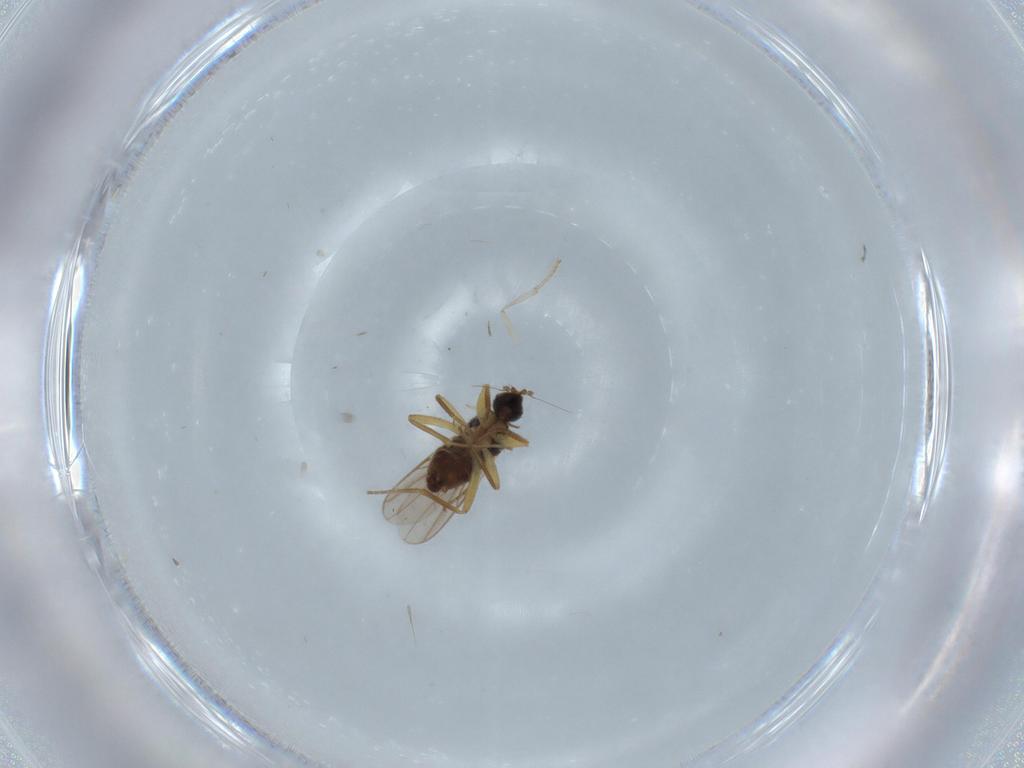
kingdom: Animalia
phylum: Arthropoda
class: Insecta
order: Diptera
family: Hybotidae
